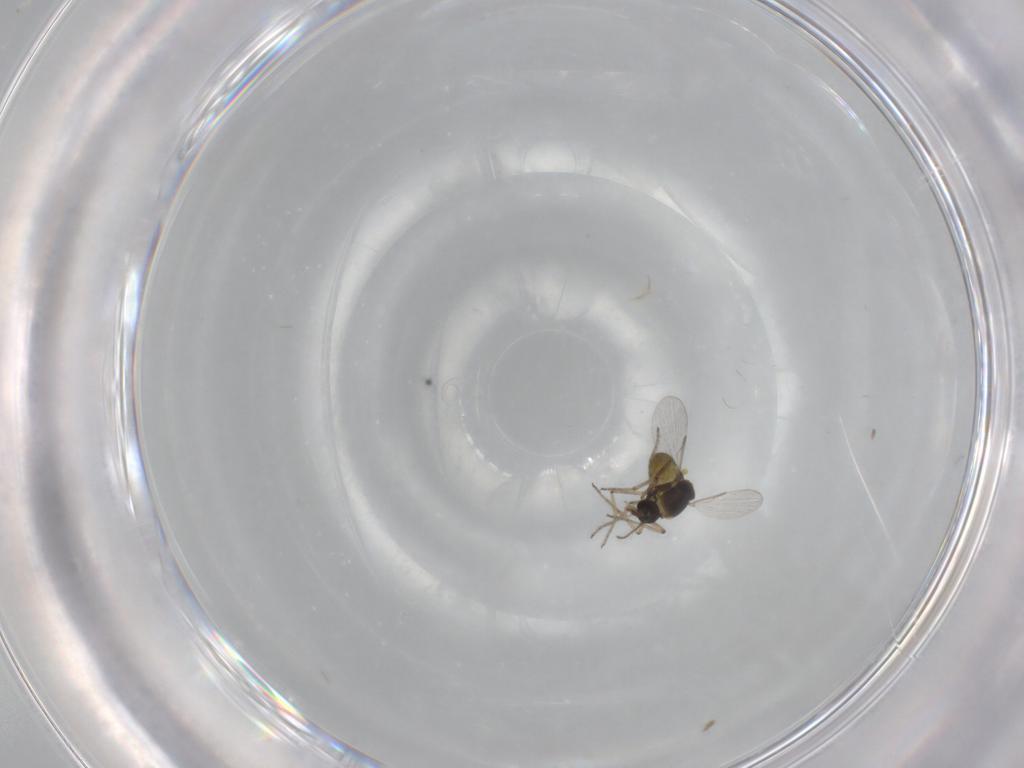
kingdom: Animalia
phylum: Arthropoda
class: Insecta
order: Diptera
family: Ceratopogonidae
